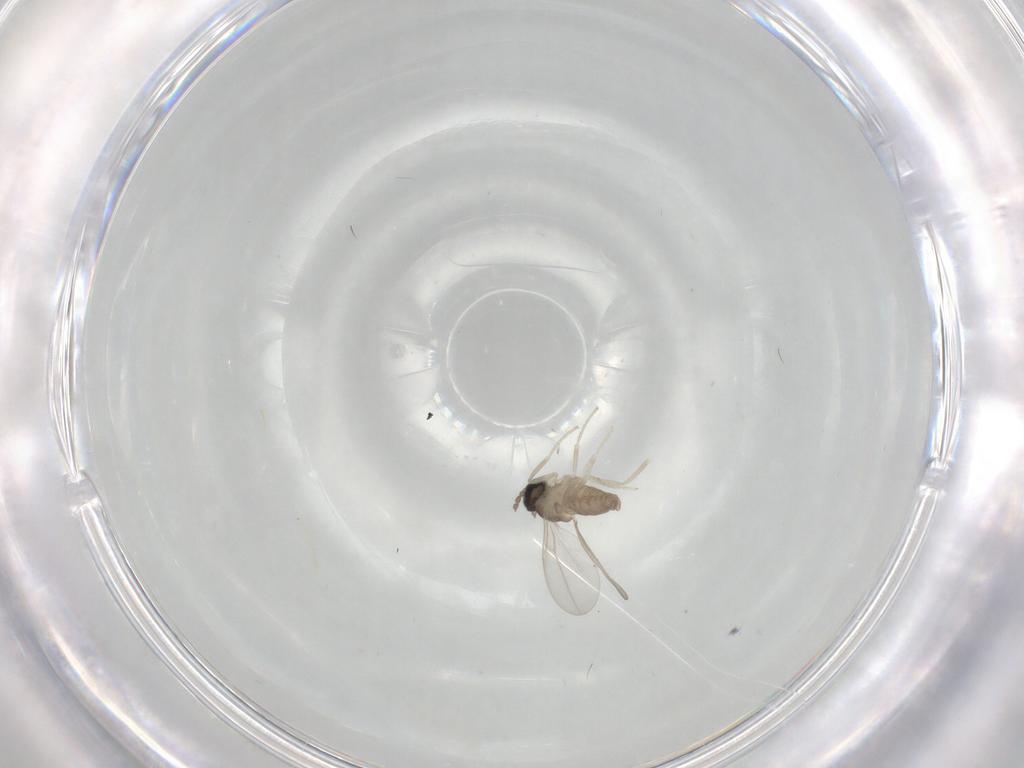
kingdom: Animalia
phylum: Arthropoda
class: Insecta
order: Diptera
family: Cecidomyiidae
